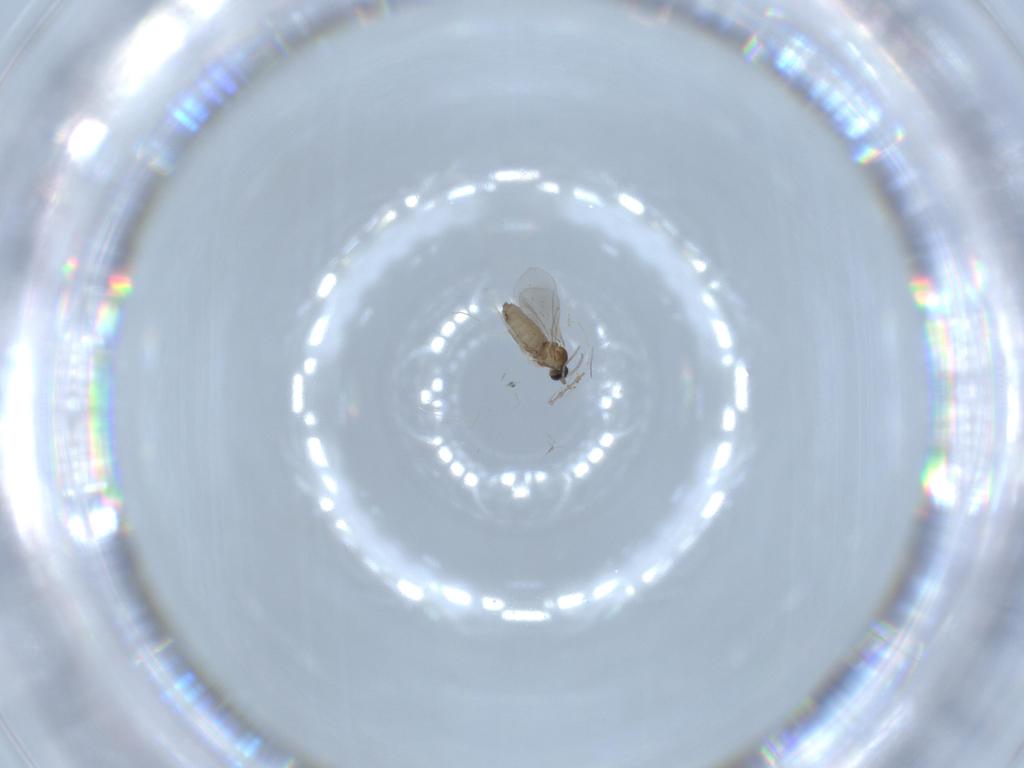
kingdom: Animalia
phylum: Arthropoda
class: Insecta
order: Diptera
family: Cecidomyiidae
